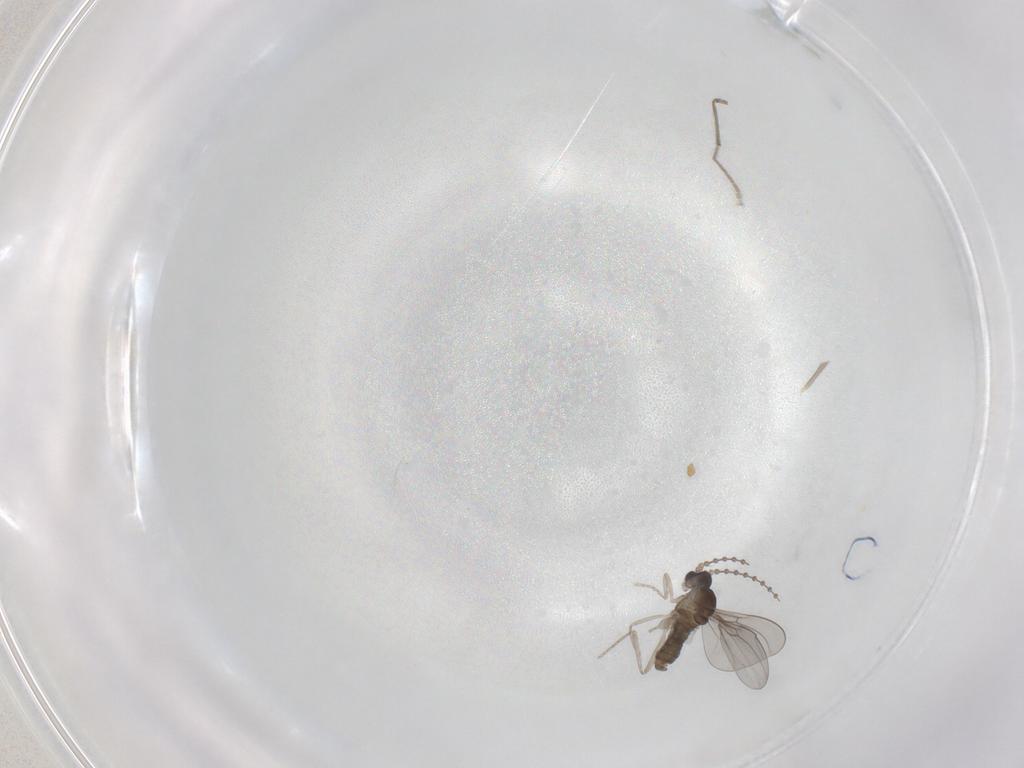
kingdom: Animalia
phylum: Arthropoda
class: Insecta
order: Diptera
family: Cecidomyiidae
